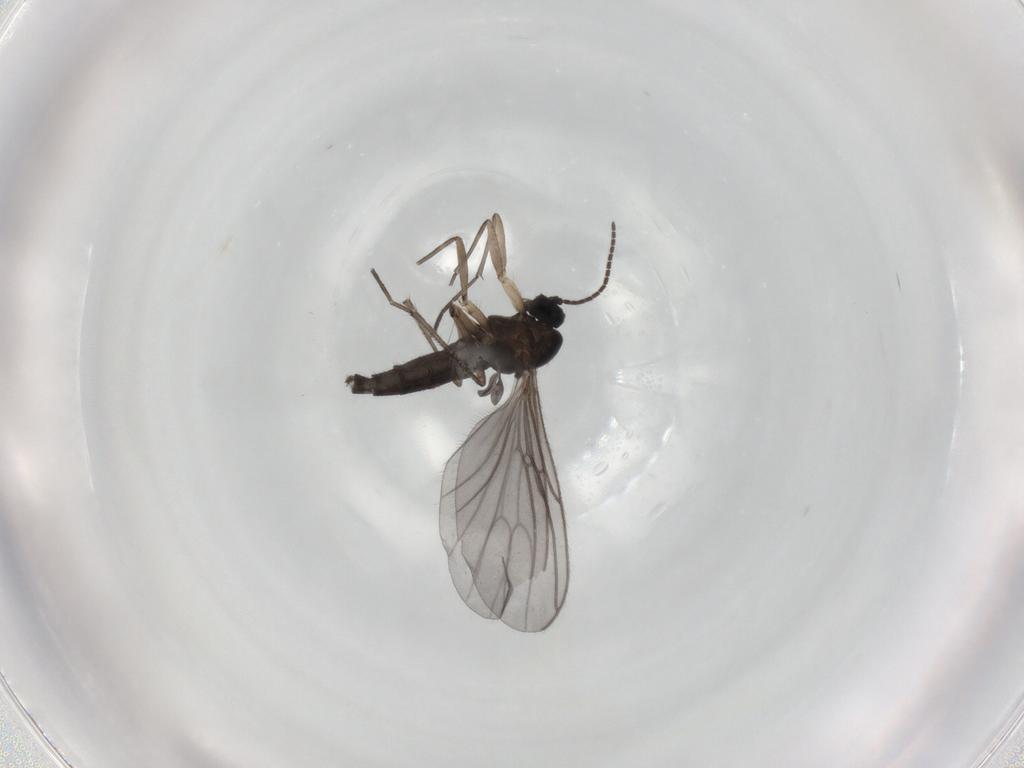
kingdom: Animalia
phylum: Arthropoda
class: Insecta
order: Diptera
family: Sciaridae
